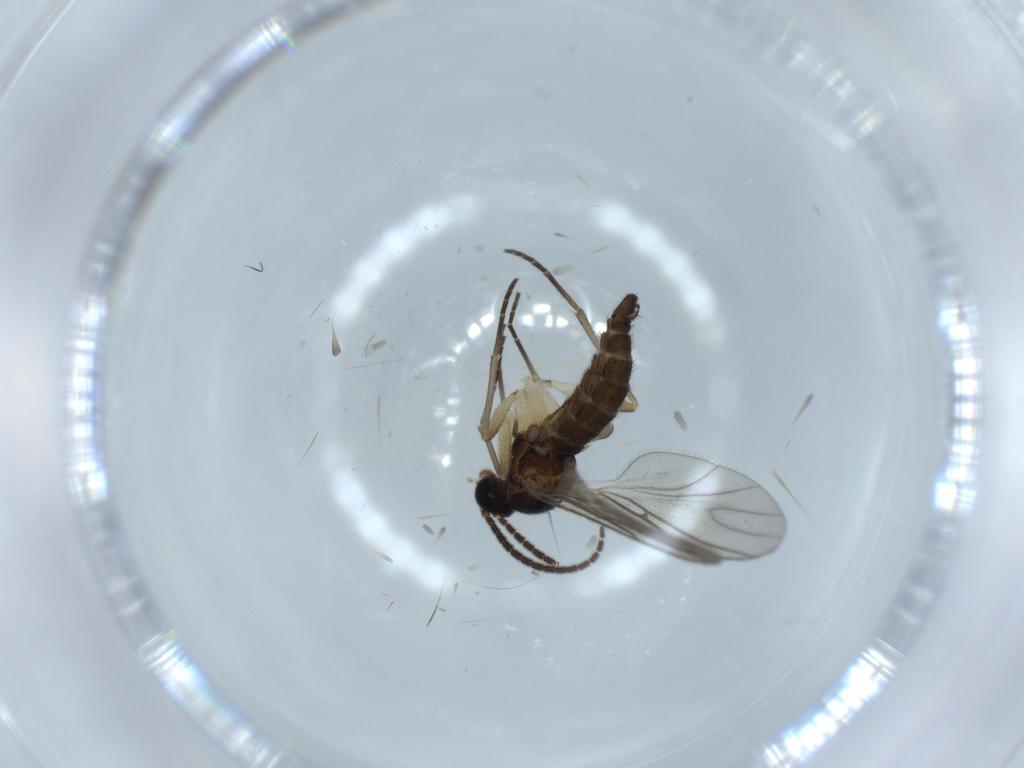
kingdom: Animalia
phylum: Arthropoda
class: Insecta
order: Diptera
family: Cecidomyiidae
